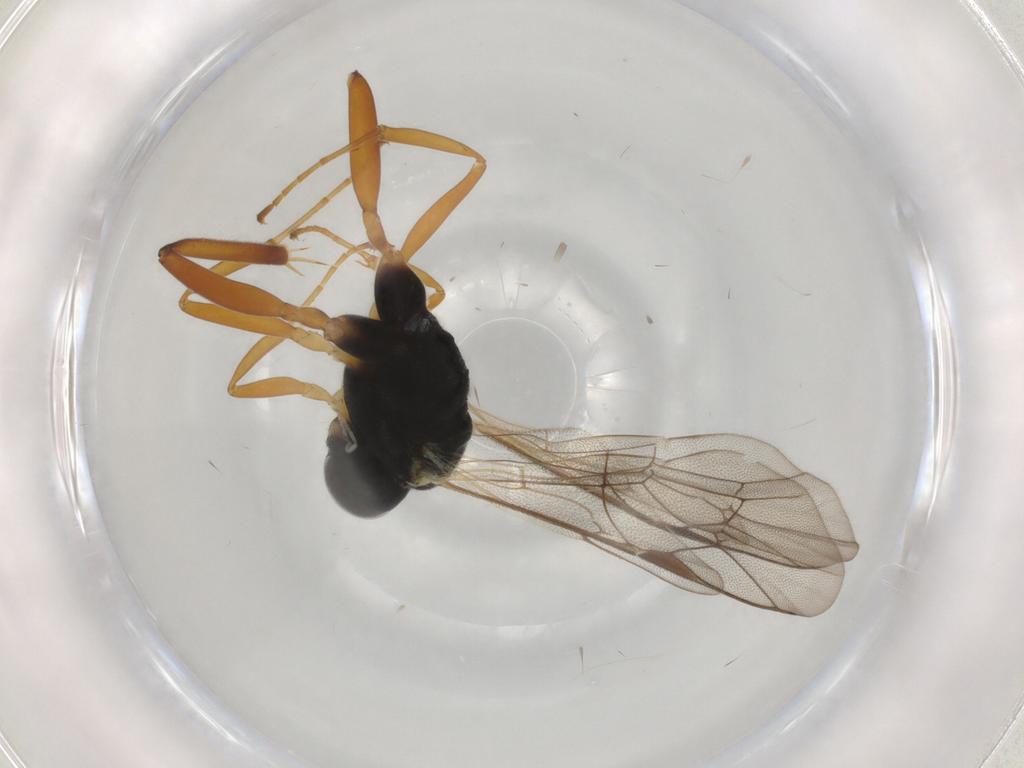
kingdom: Animalia
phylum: Arthropoda
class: Insecta
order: Hymenoptera
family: Ichneumonidae
